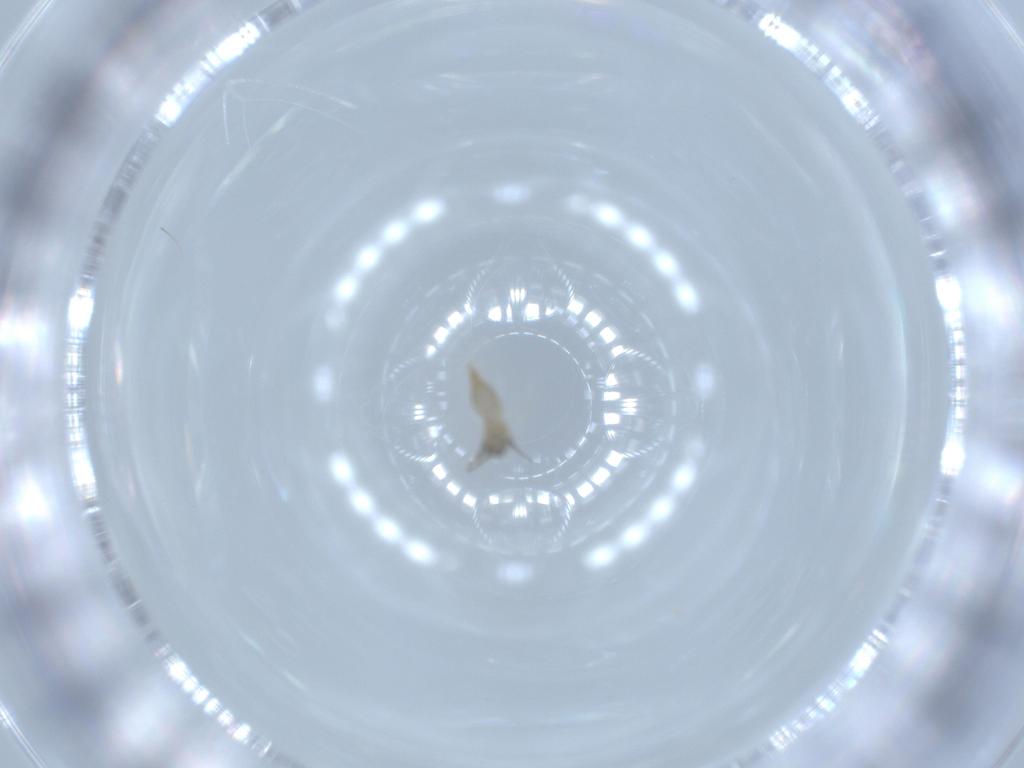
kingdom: Animalia
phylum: Arthropoda
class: Insecta
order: Diptera
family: Cecidomyiidae
